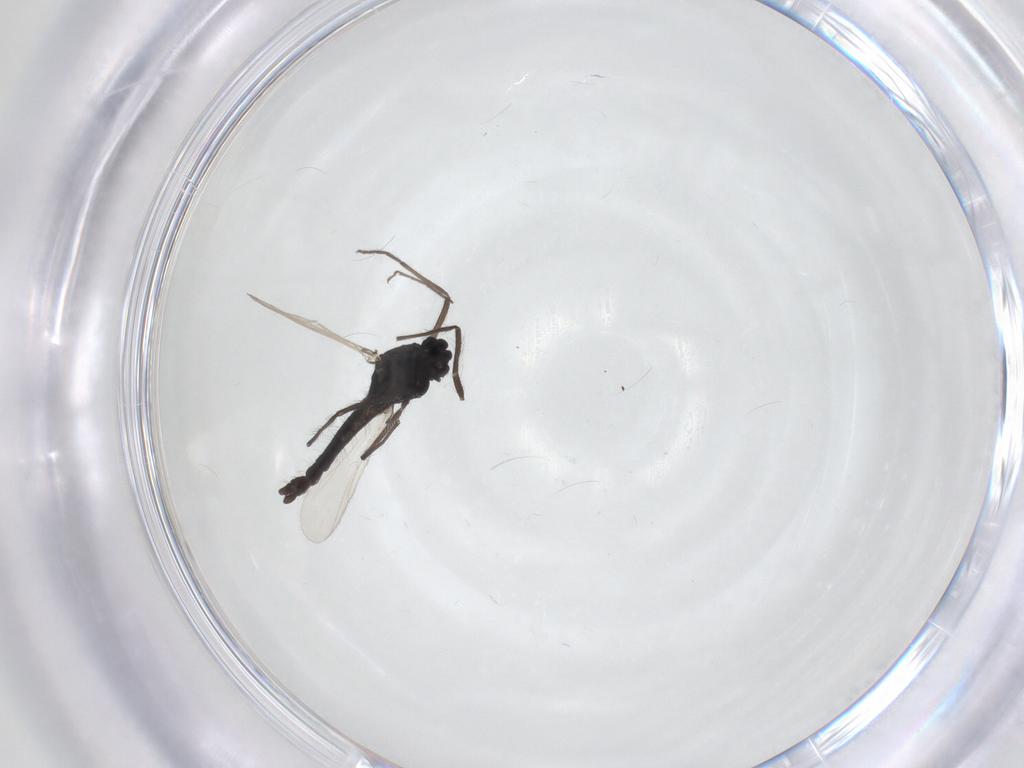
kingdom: Animalia
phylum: Arthropoda
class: Insecta
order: Diptera
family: Chironomidae
